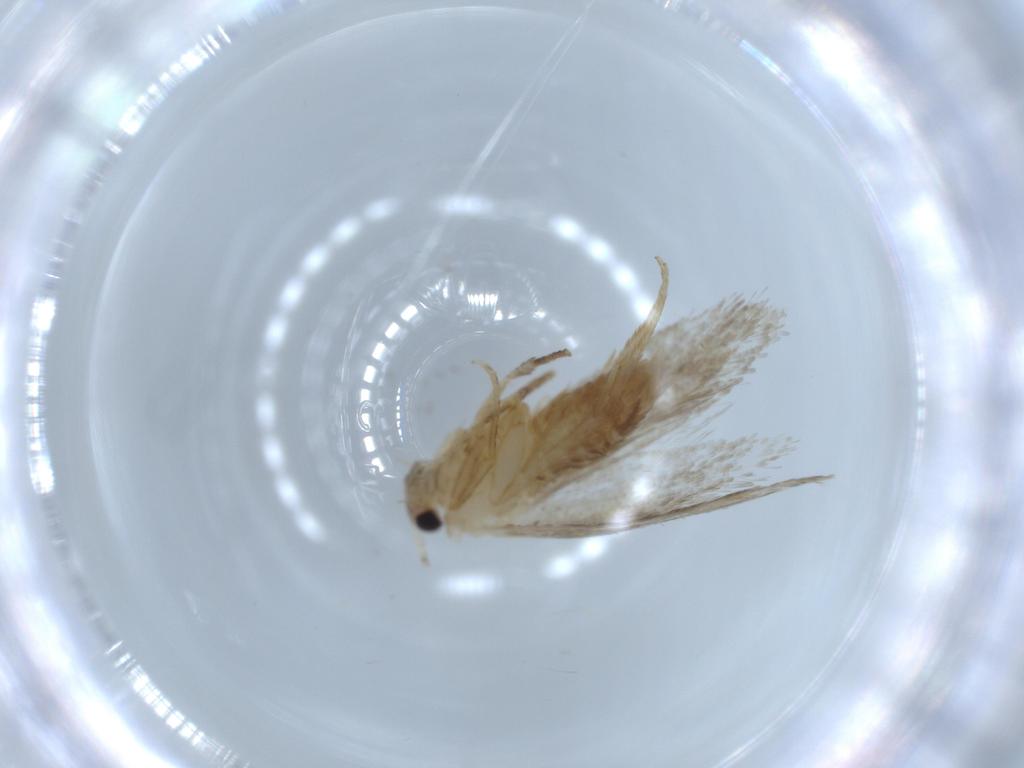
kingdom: Animalia
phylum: Arthropoda
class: Insecta
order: Lepidoptera
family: Tineidae
